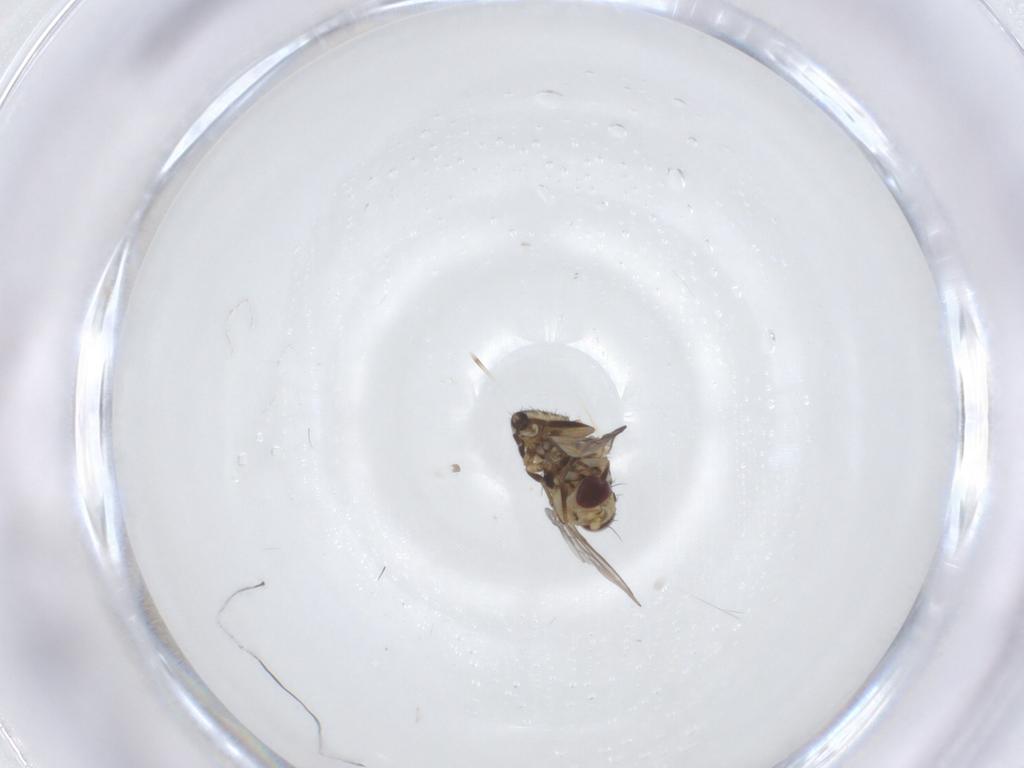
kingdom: Animalia
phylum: Arthropoda
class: Insecta
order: Diptera
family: Agromyzidae
